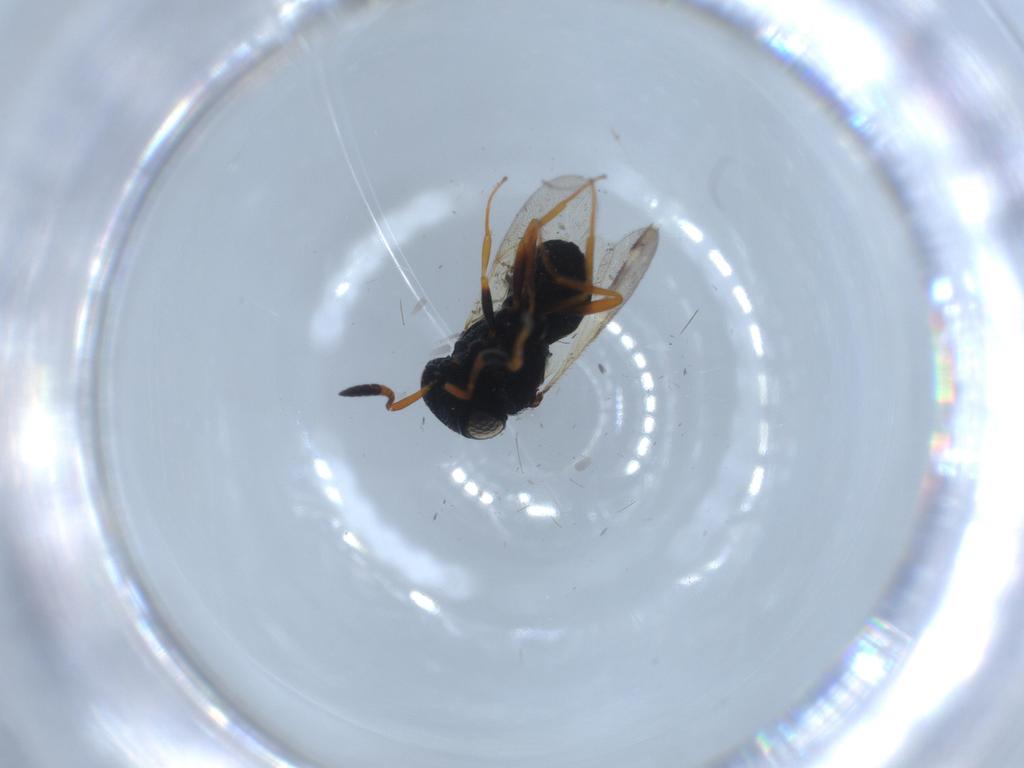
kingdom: Animalia
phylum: Arthropoda
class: Insecta
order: Hymenoptera
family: Scelionidae
